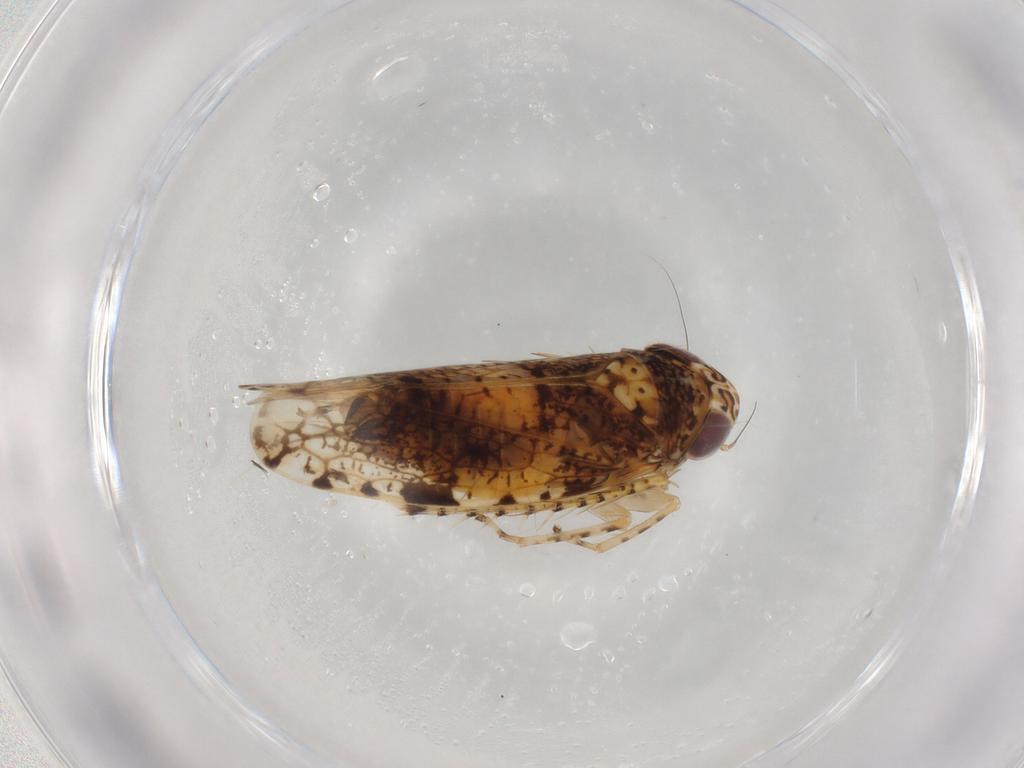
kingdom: Animalia
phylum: Arthropoda
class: Insecta
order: Hemiptera
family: Cicadellidae
